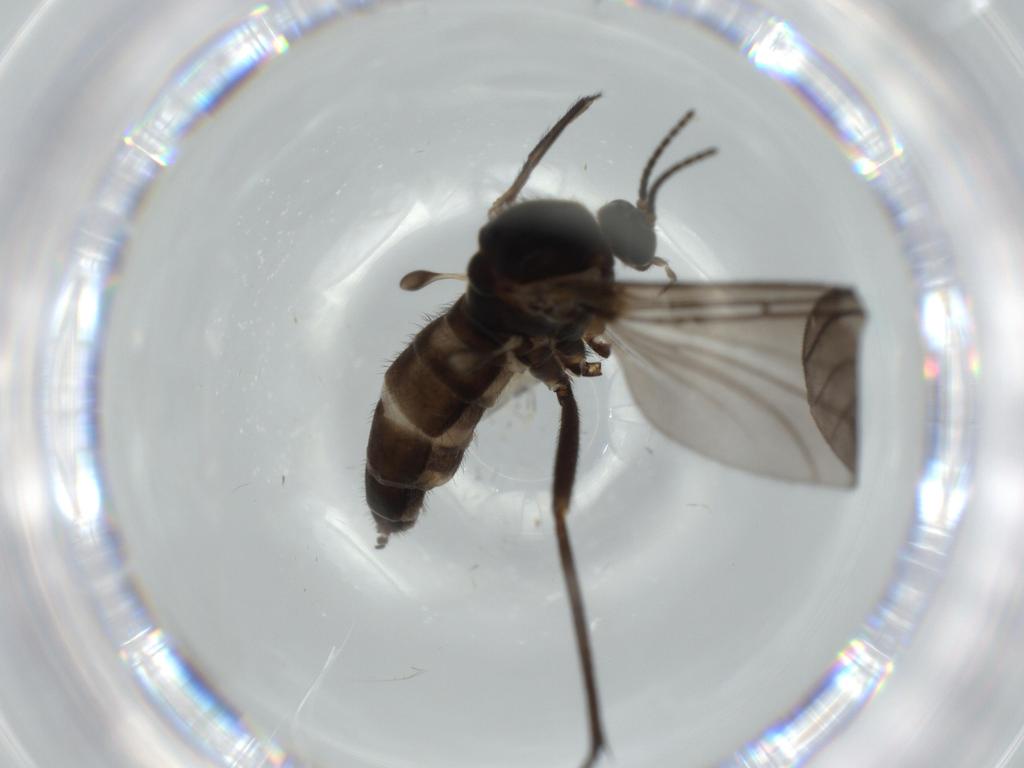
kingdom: Animalia
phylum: Arthropoda
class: Insecta
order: Diptera
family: Sciaridae
